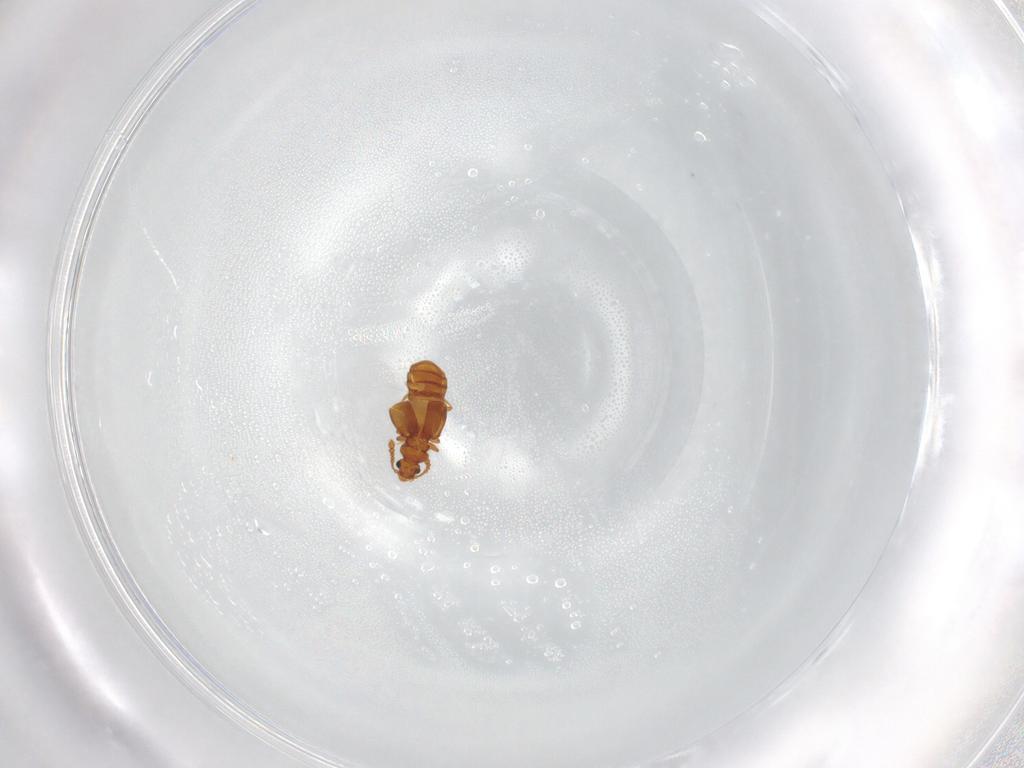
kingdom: Animalia
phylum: Arthropoda
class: Insecta
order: Coleoptera
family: Staphylinidae
